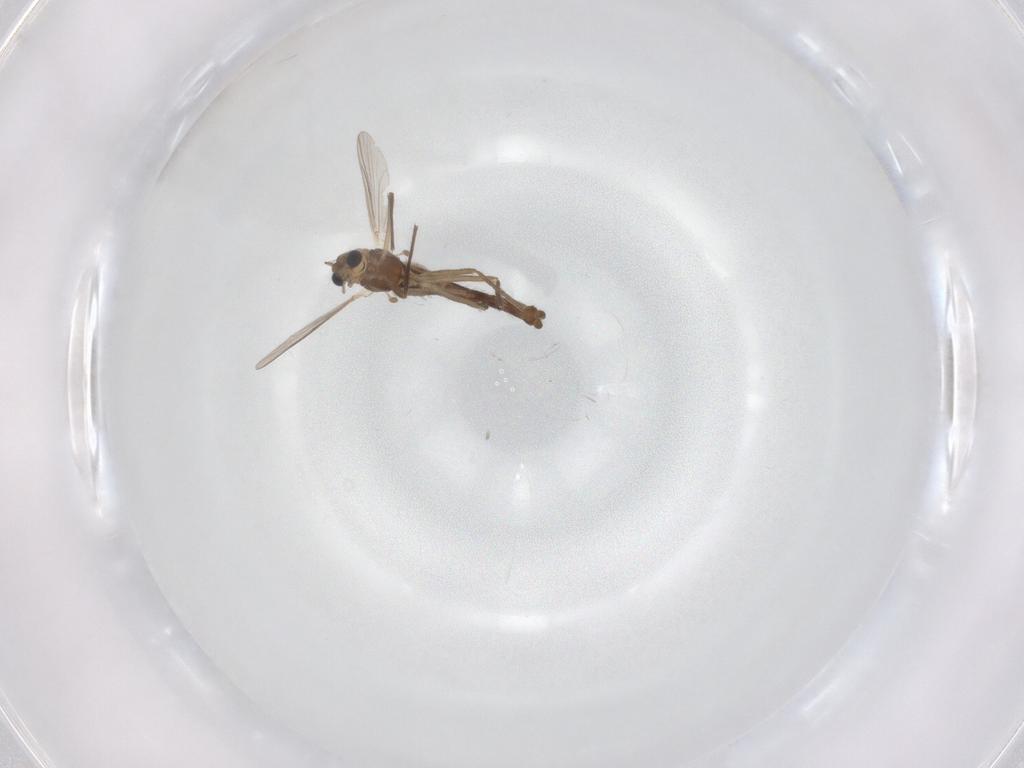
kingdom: Animalia
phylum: Arthropoda
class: Insecta
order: Diptera
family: Chironomidae
